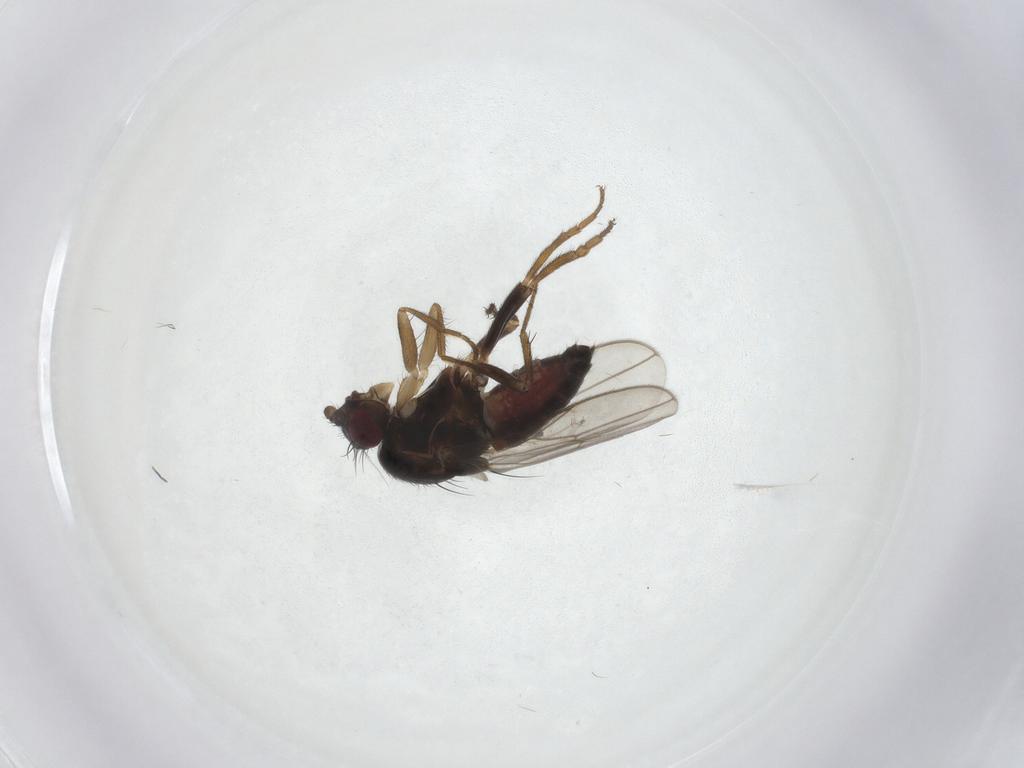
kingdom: Animalia
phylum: Arthropoda
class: Insecta
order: Diptera
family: Sphaeroceridae
